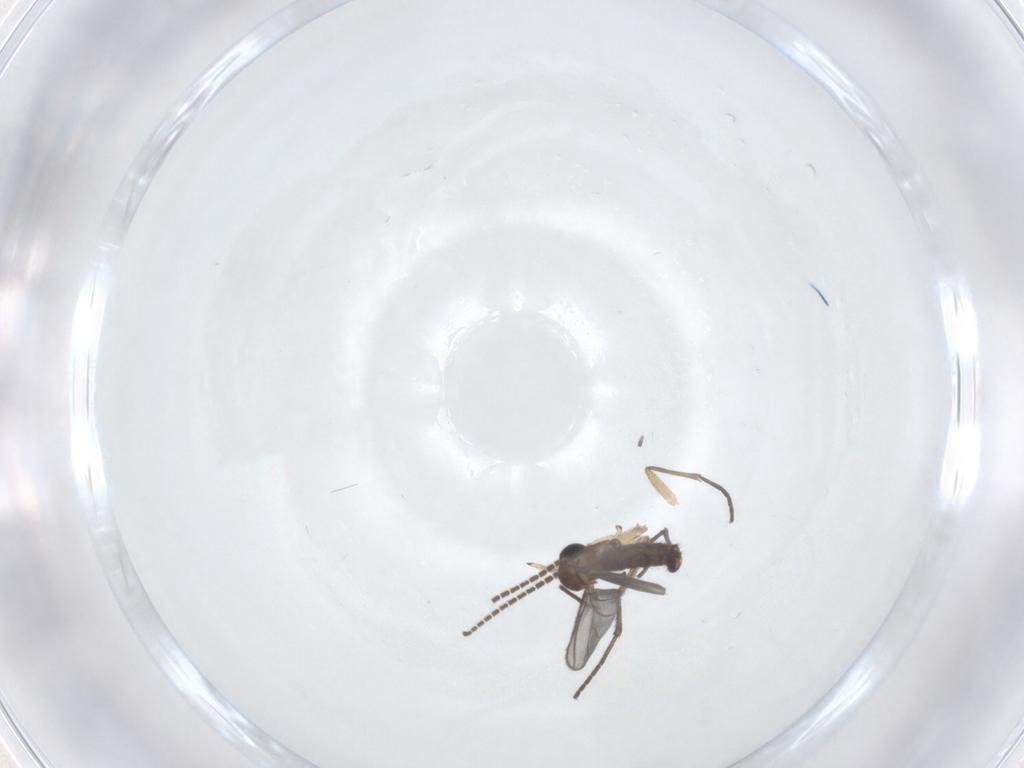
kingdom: Animalia
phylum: Arthropoda
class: Insecta
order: Diptera
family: Sciaridae
